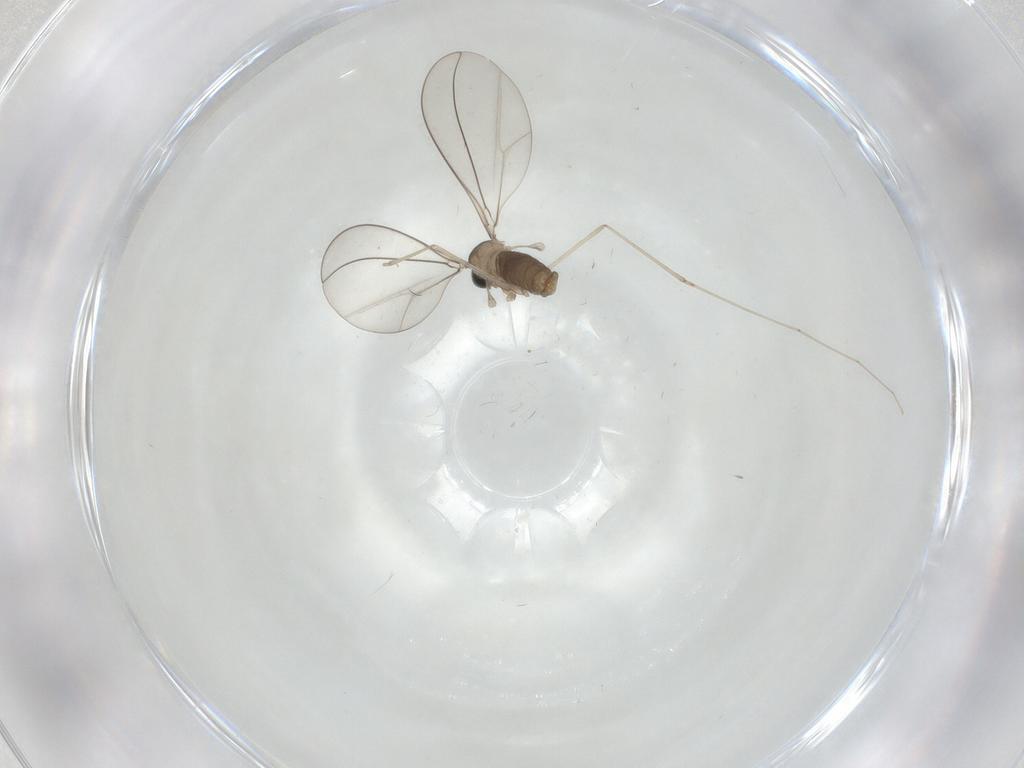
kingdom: Animalia
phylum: Arthropoda
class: Insecta
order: Diptera
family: Cecidomyiidae
